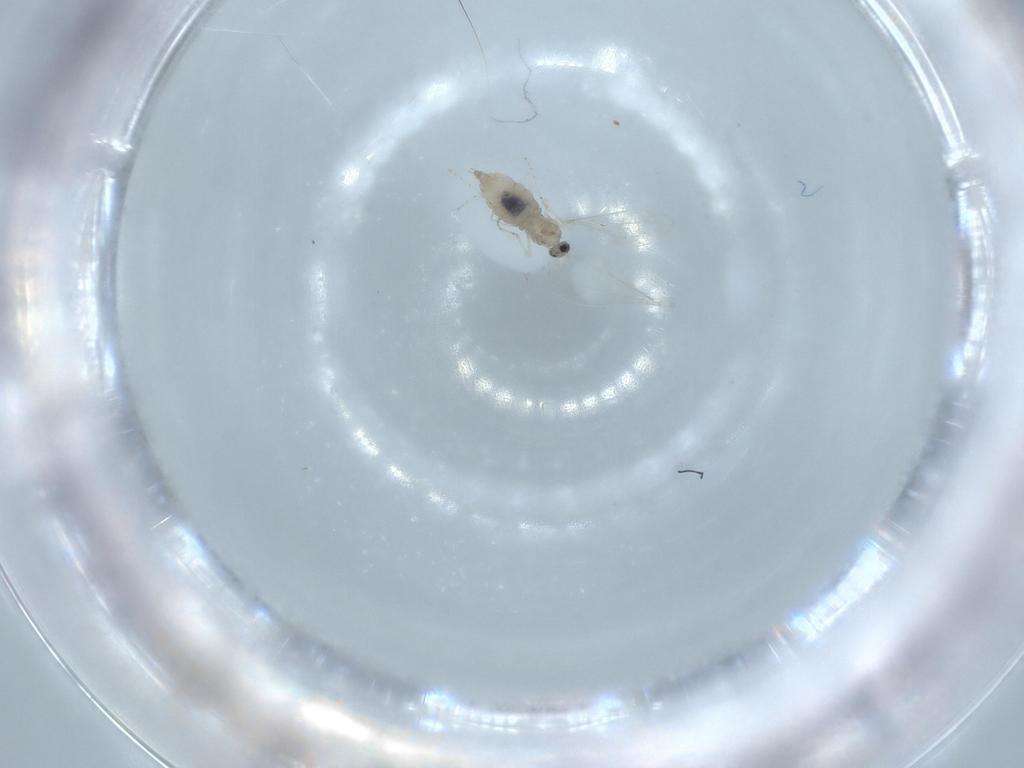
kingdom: Animalia
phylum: Arthropoda
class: Insecta
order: Diptera
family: Cecidomyiidae
